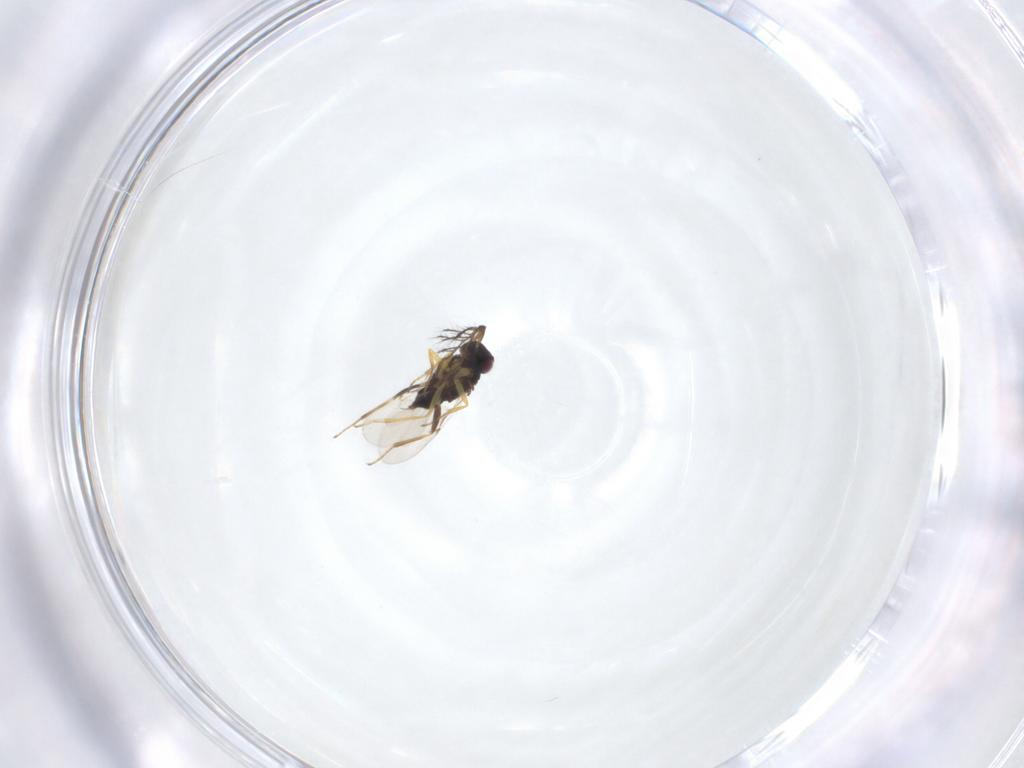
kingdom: Animalia
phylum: Arthropoda
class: Insecta
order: Hymenoptera
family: Encyrtidae
